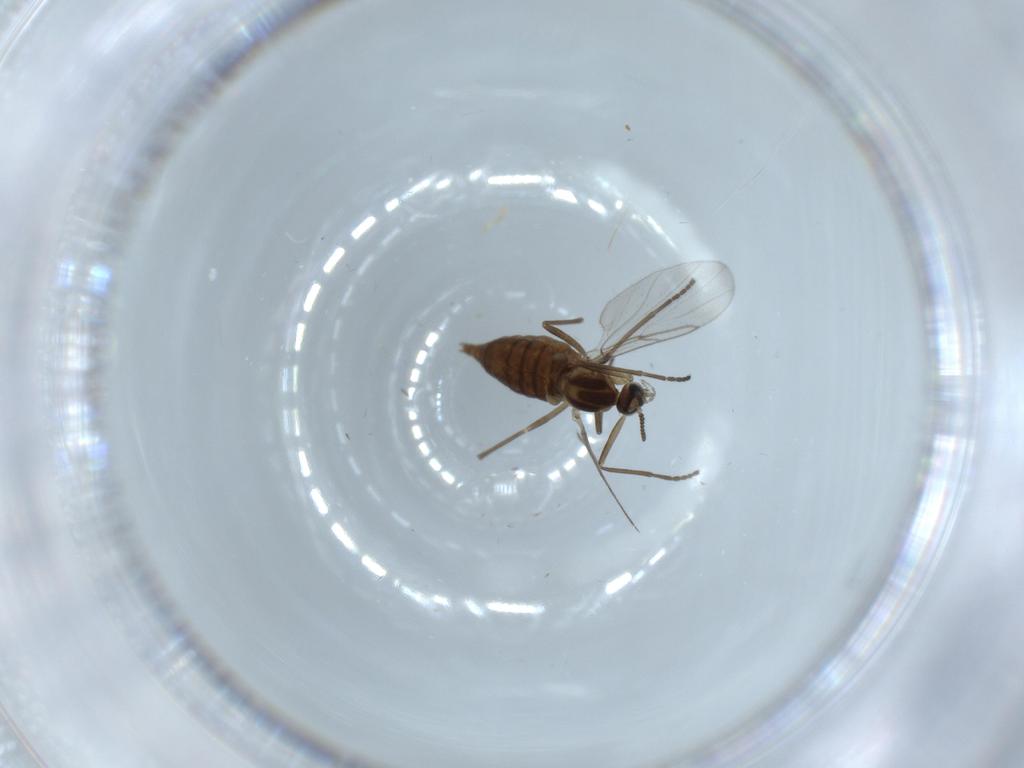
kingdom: Animalia
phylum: Arthropoda
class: Insecta
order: Diptera
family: Cecidomyiidae
